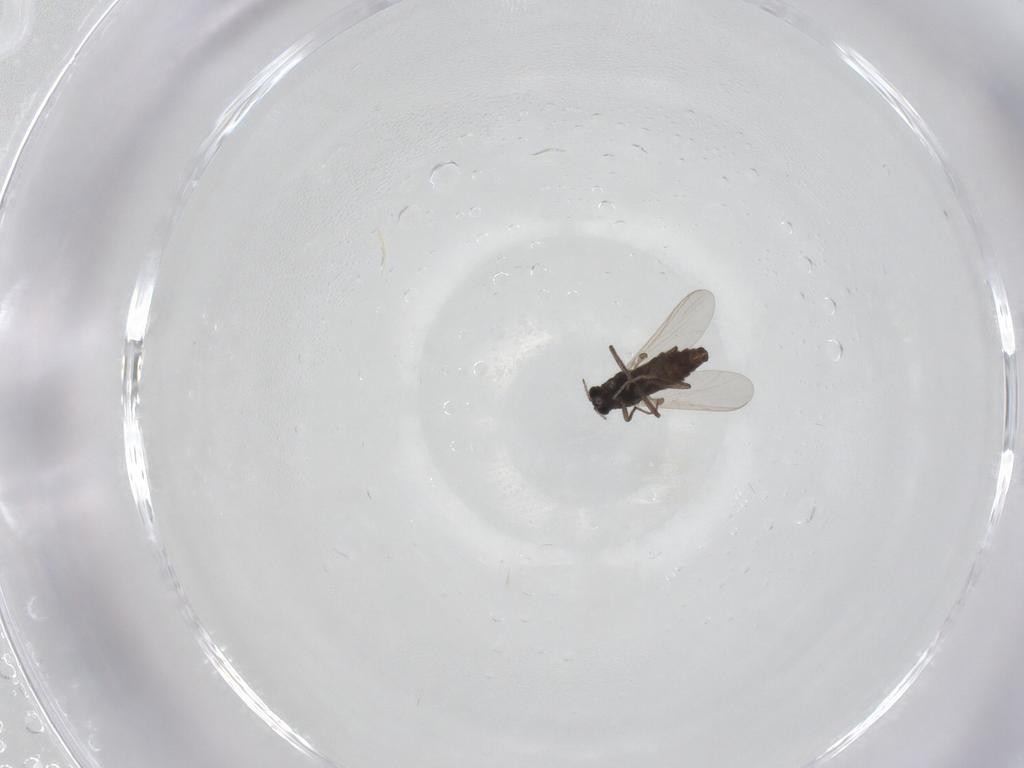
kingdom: Animalia
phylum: Arthropoda
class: Insecta
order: Diptera
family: Chironomidae
